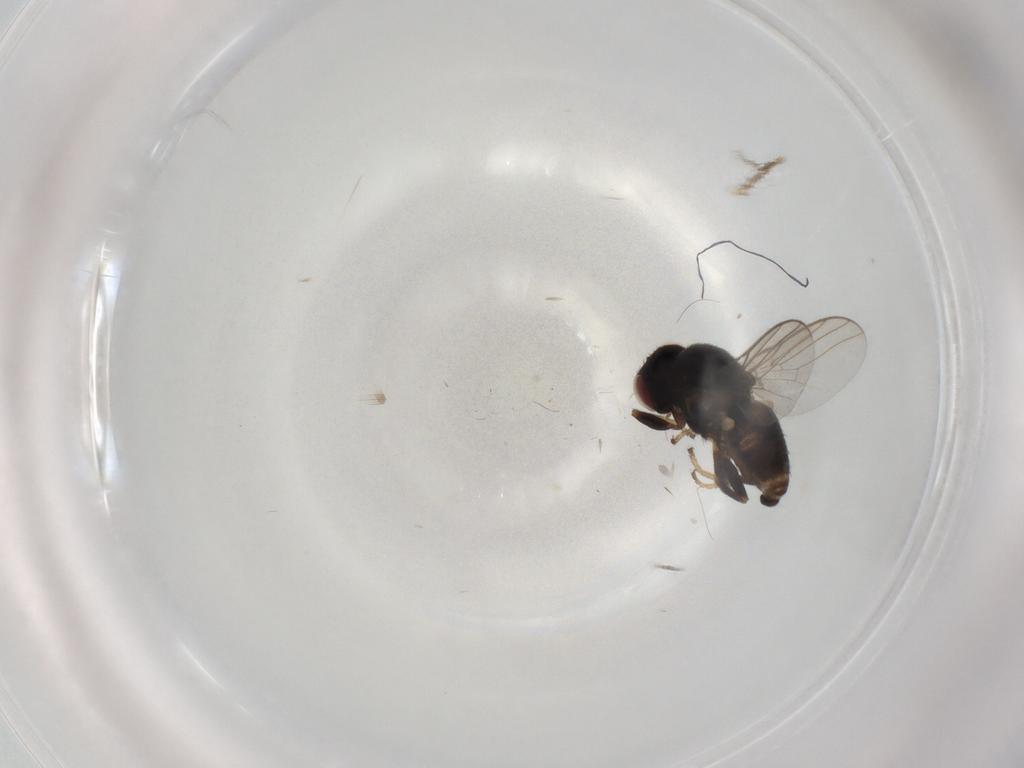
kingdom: Animalia
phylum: Arthropoda
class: Insecta
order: Diptera
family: Chloropidae
